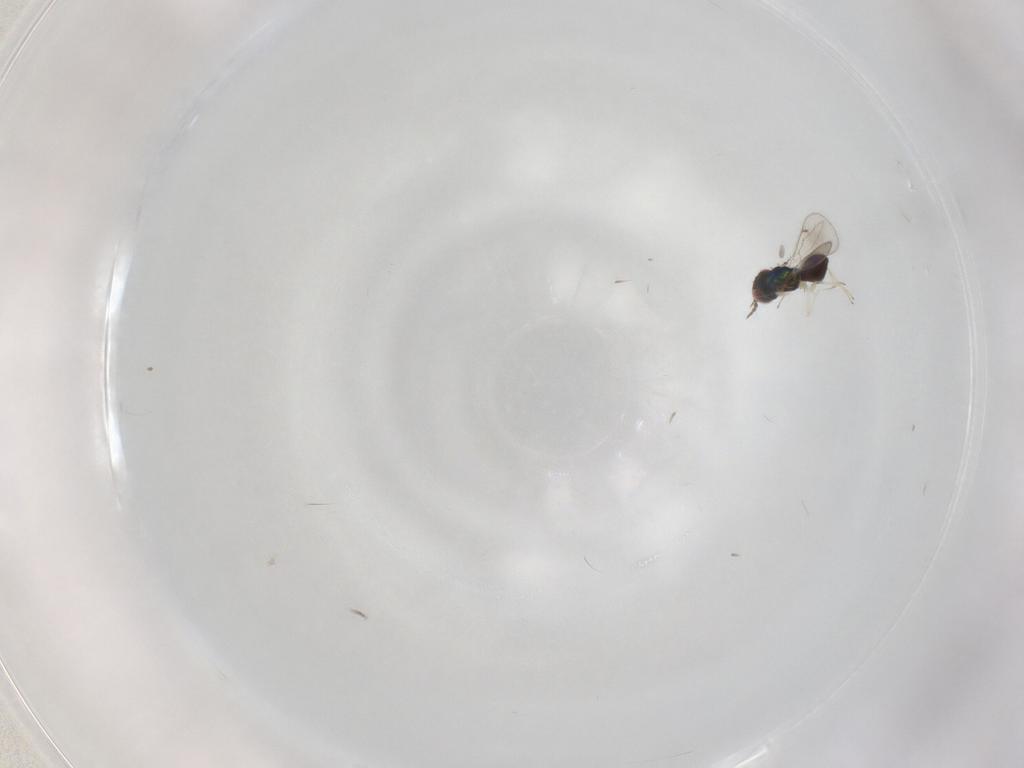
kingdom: Animalia
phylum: Arthropoda
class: Insecta
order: Hymenoptera
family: Eulophidae
